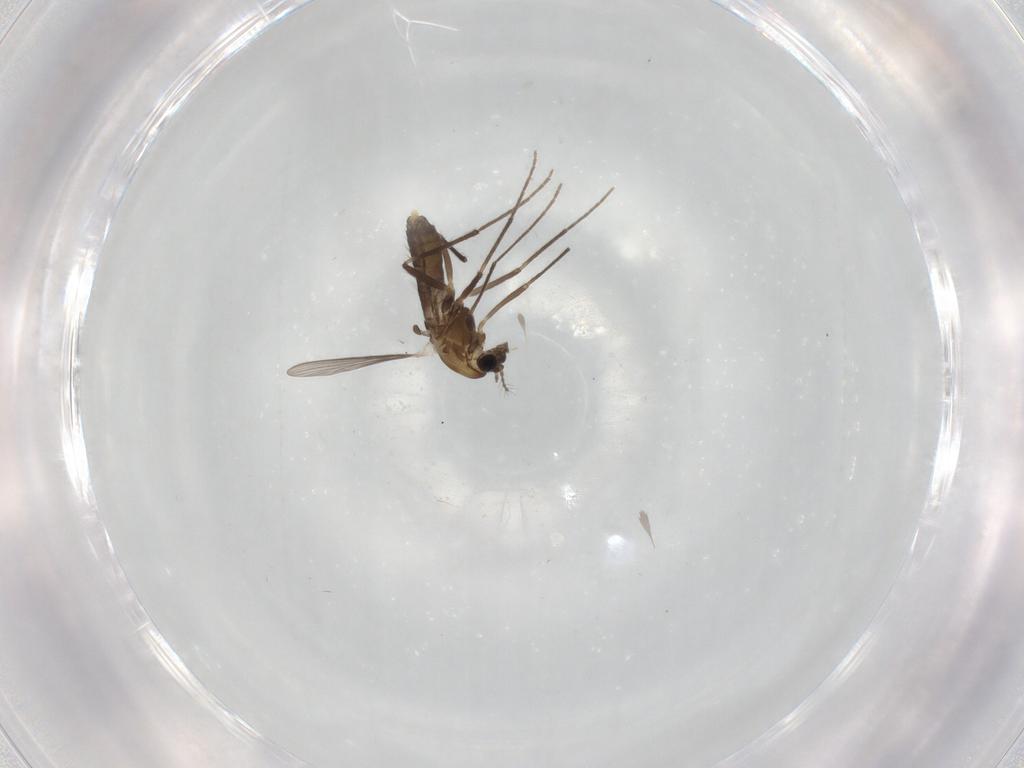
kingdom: Animalia
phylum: Arthropoda
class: Insecta
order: Diptera
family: Chironomidae
